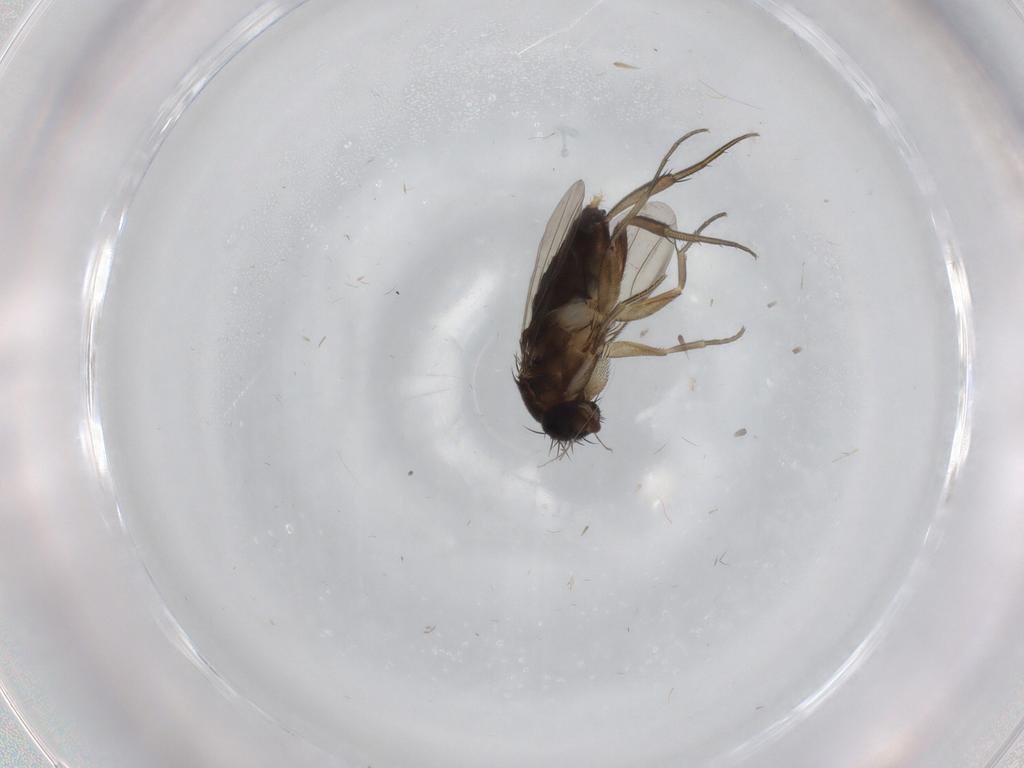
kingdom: Animalia
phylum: Arthropoda
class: Insecta
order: Diptera
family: Phoridae
